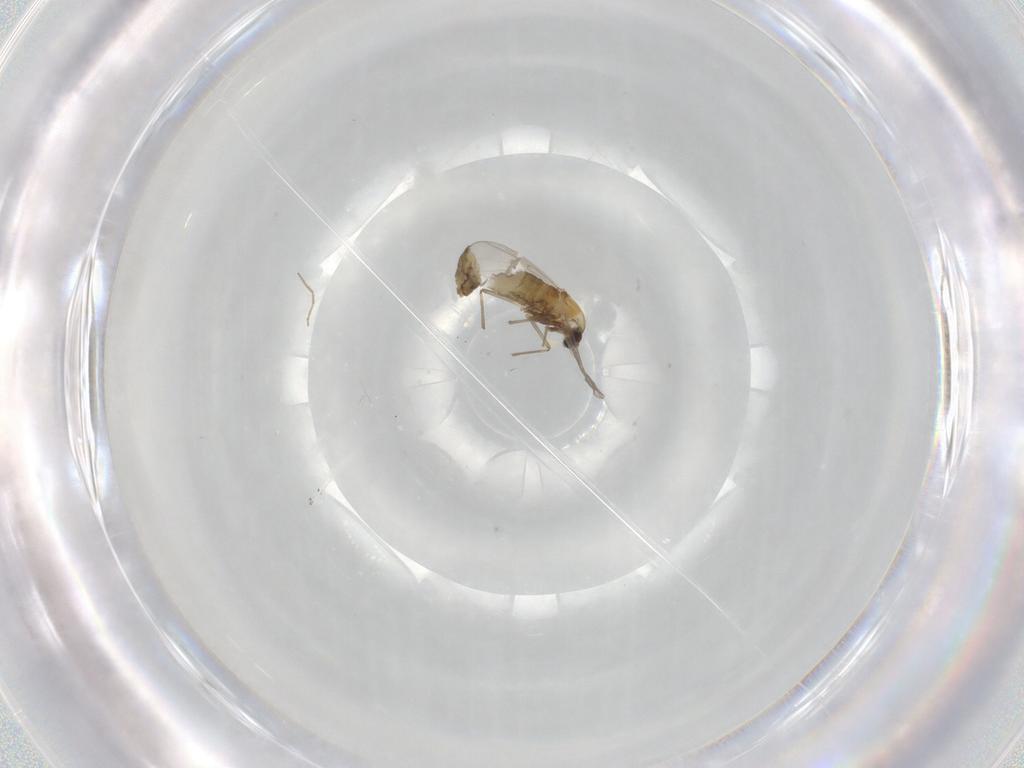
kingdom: Animalia
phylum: Arthropoda
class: Insecta
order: Diptera
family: Chironomidae
